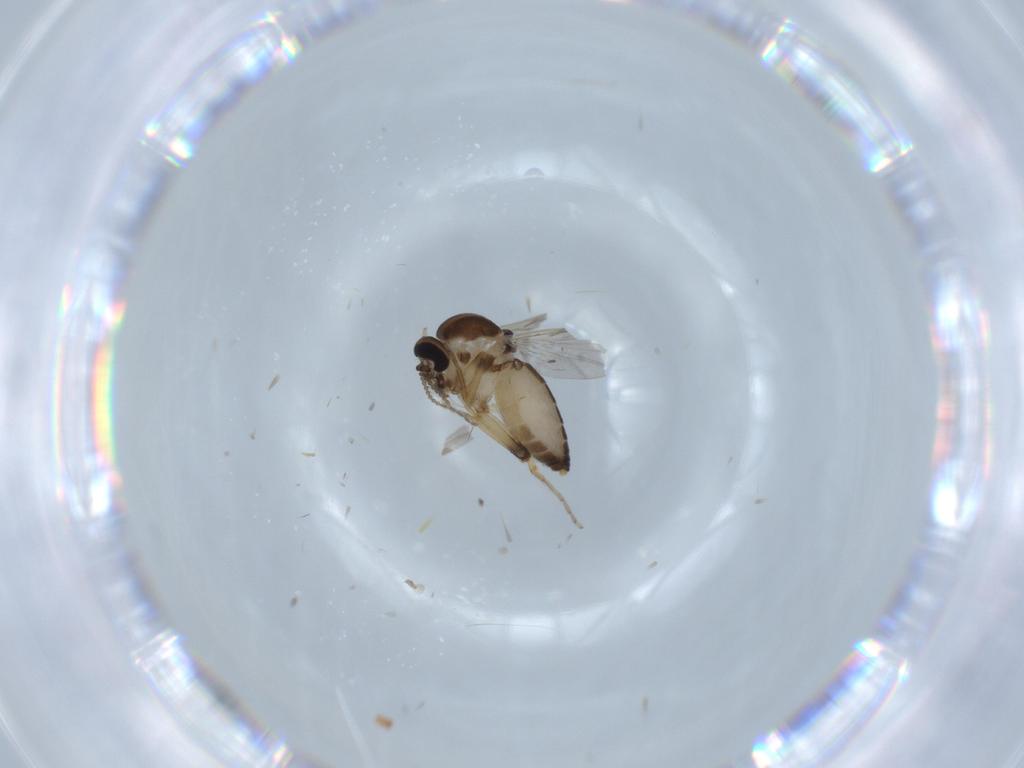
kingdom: Animalia
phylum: Arthropoda
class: Insecta
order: Diptera
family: Ceratopogonidae
